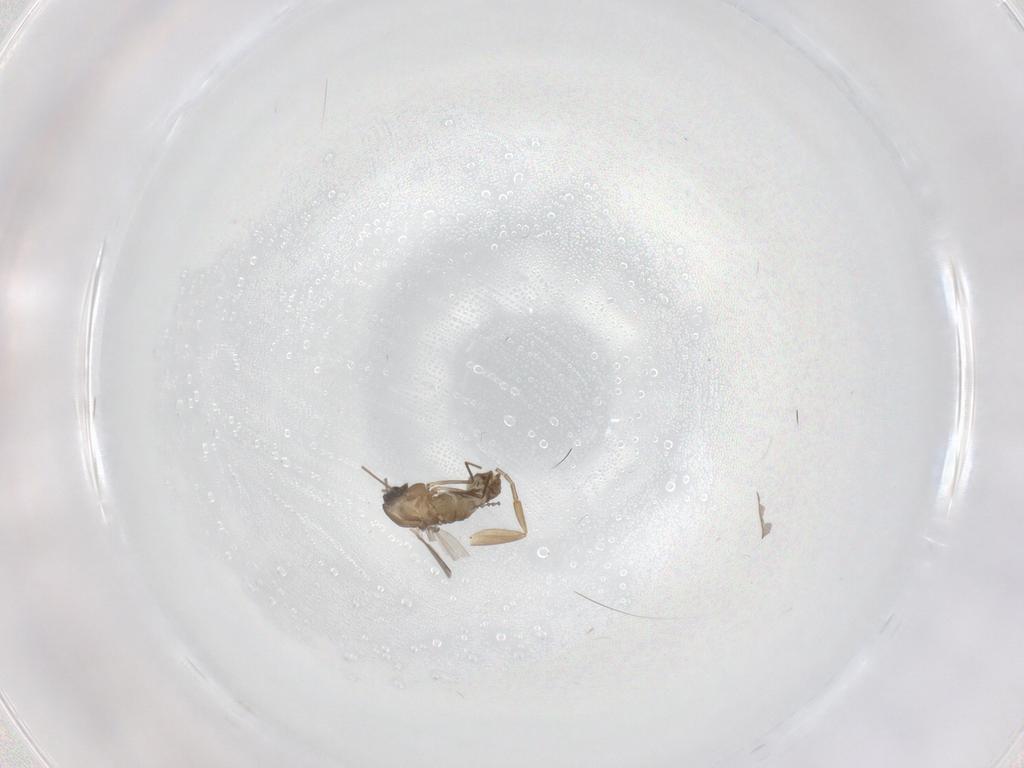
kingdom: Animalia
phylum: Arthropoda
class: Insecta
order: Diptera
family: Chironomidae
